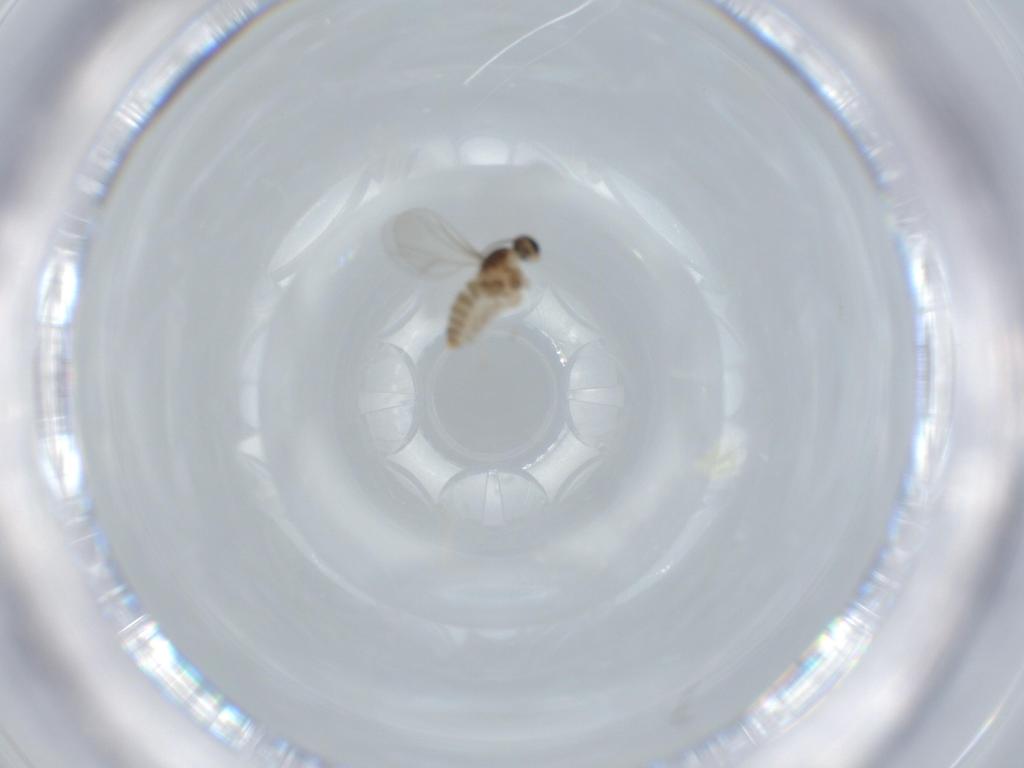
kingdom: Animalia
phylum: Arthropoda
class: Insecta
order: Diptera
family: Cecidomyiidae
